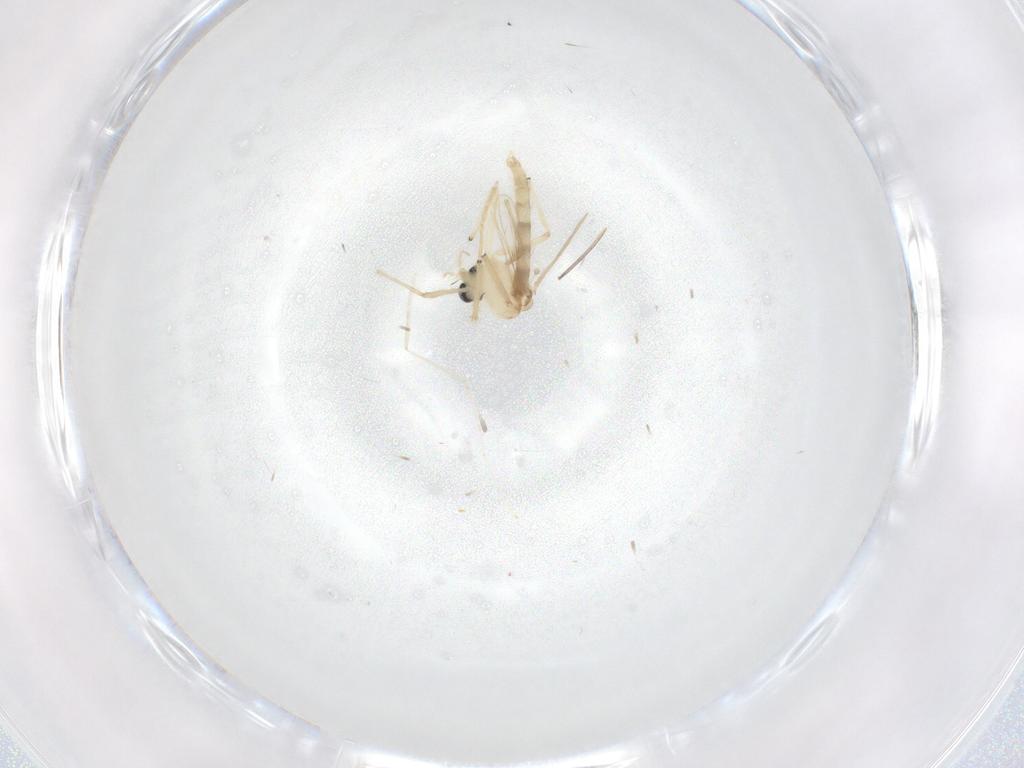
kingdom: Animalia
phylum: Arthropoda
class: Insecta
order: Diptera
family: Chironomidae
